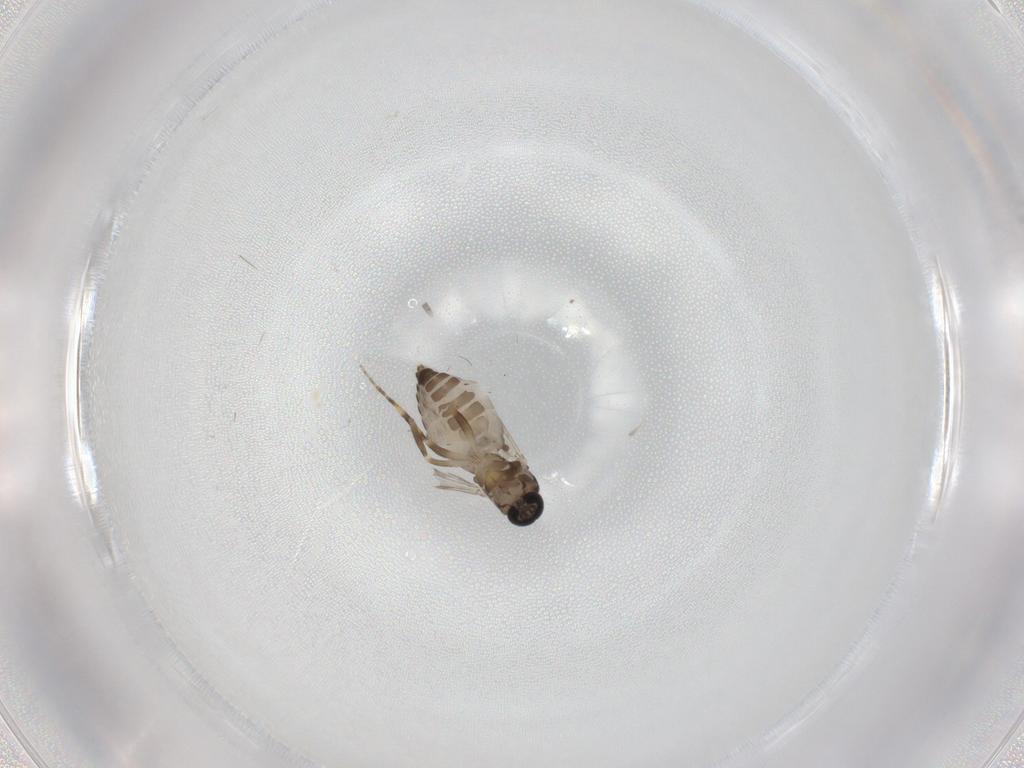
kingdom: Animalia
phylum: Arthropoda
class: Insecta
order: Diptera
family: Ceratopogonidae
